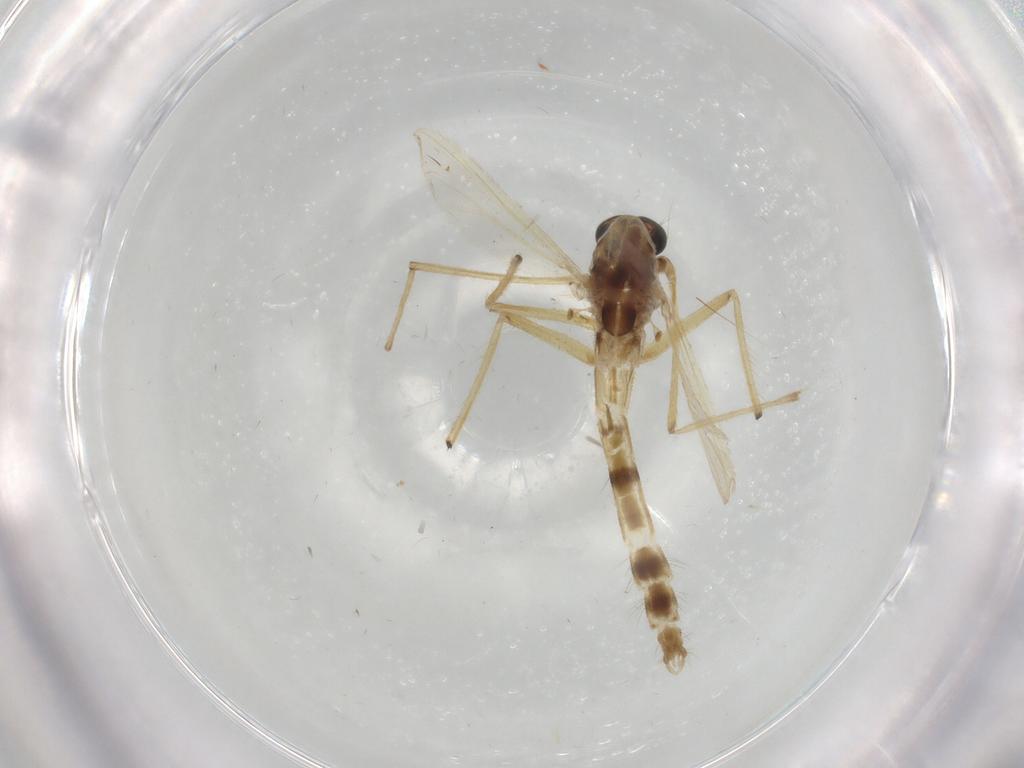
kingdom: Animalia
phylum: Arthropoda
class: Insecta
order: Diptera
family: Chironomidae
